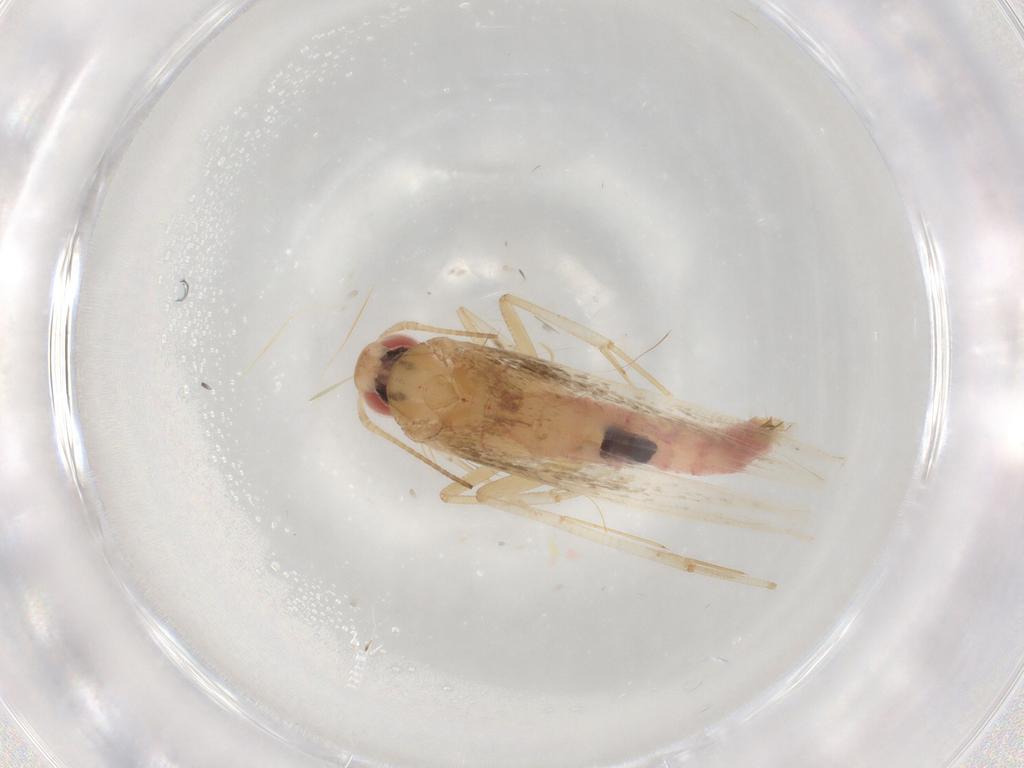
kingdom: Animalia
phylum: Arthropoda
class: Insecta
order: Lepidoptera
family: Cosmopterigidae
